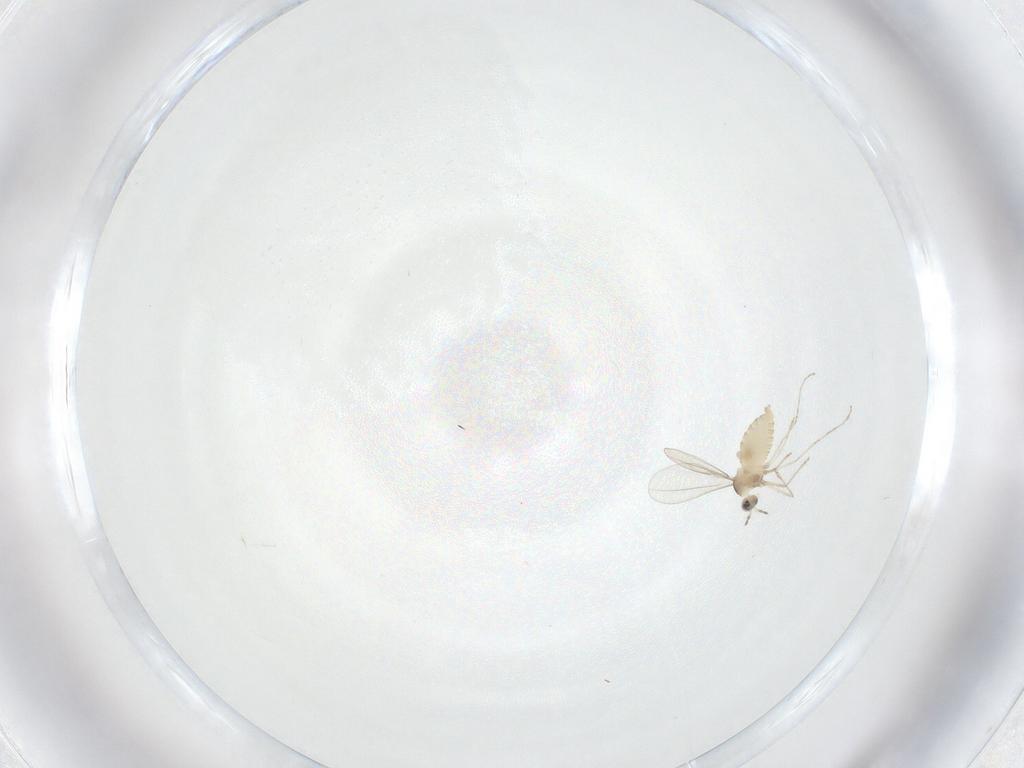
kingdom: Animalia
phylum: Arthropoda
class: Insecta
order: Diptera
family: Cecidomyiidae
